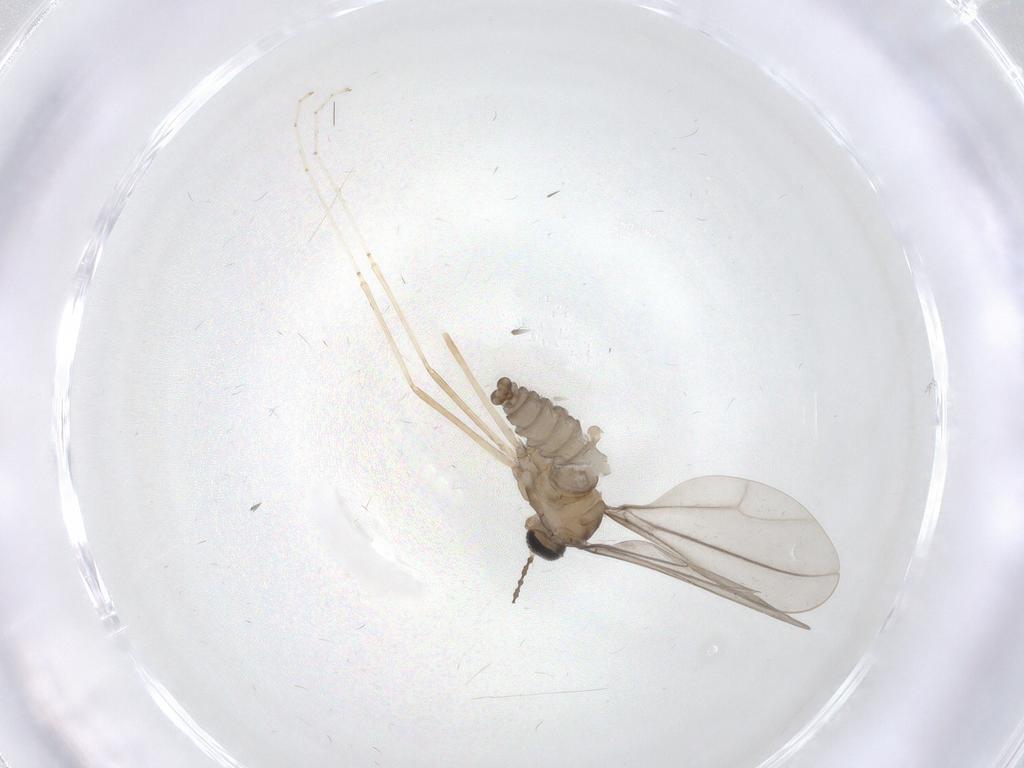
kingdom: Animalia
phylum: Arthropoda
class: Insecta
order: Diptera
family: Cecidomyiidae
